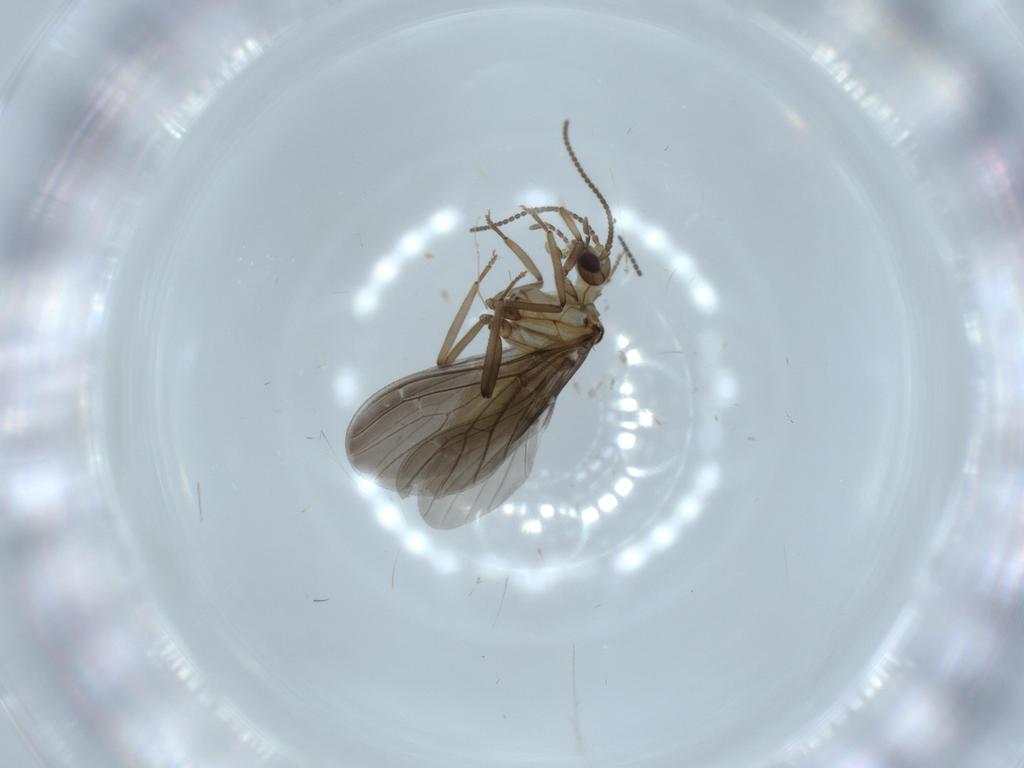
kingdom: Animalia
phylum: Arthropoda
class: Insecta
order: Neuroptera
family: Coniopterygidae
